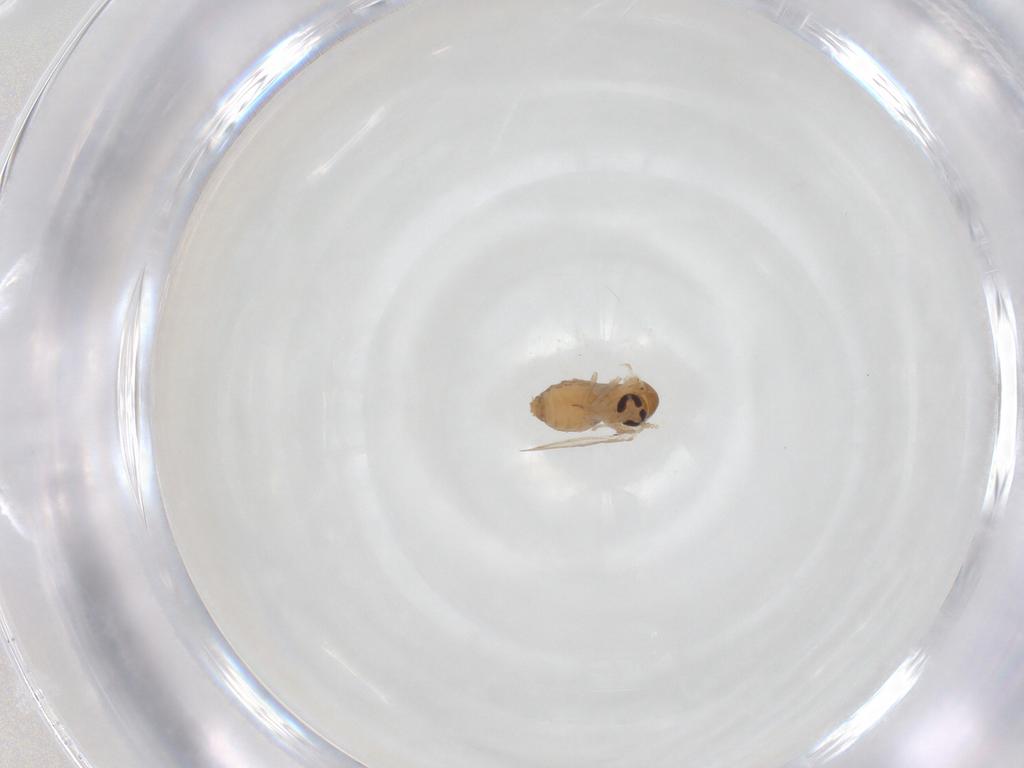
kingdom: Animalia
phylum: Arthropoda
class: Insecta
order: Diptera
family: Psychodidae
